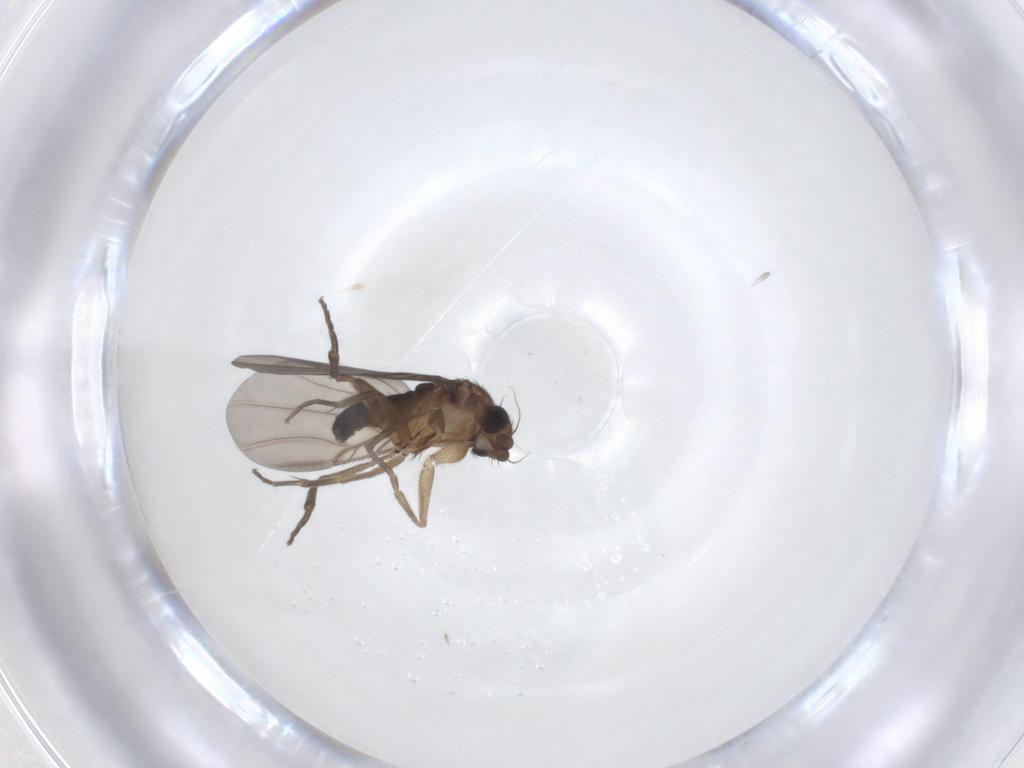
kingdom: Animalia
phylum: Arthropoda
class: Insecta
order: Diptera
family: Phoridae
